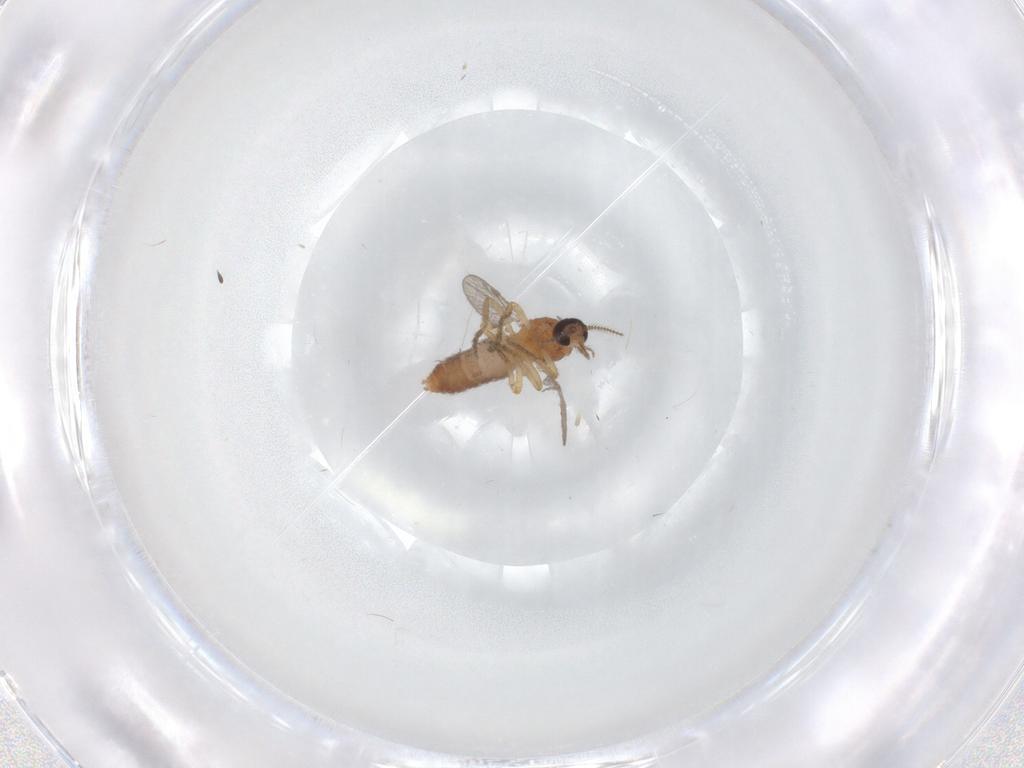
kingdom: Animalia
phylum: Arthropoda
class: Insecta
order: Diptera
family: Ceratopogonidae
